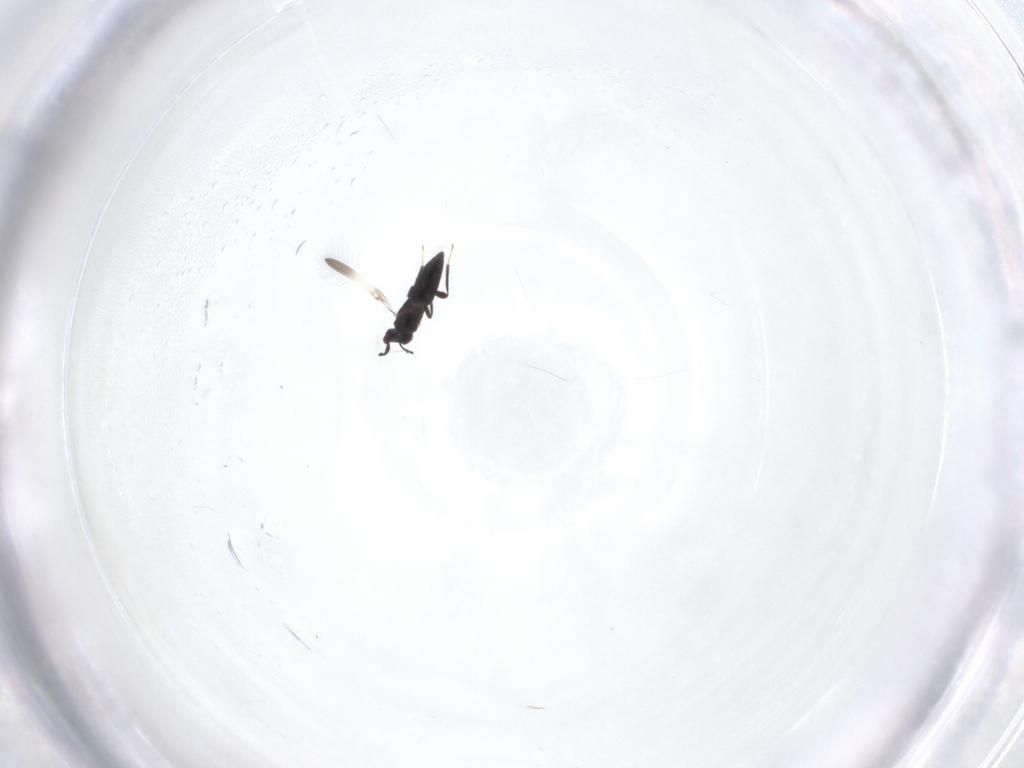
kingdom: Animalia
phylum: Arthropoda
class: Insecta
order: Hymenoptera
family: Mymaridae
